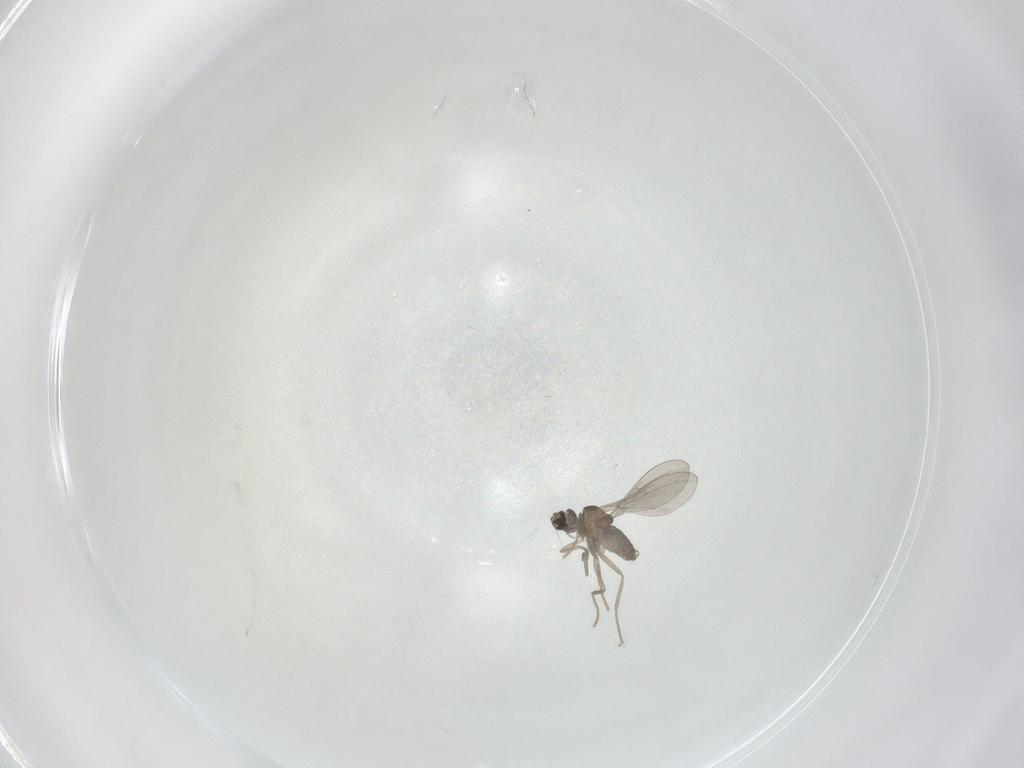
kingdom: Animalia
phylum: Arthropoda
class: Insecta
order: Diptera
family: Cecidomyiidae
